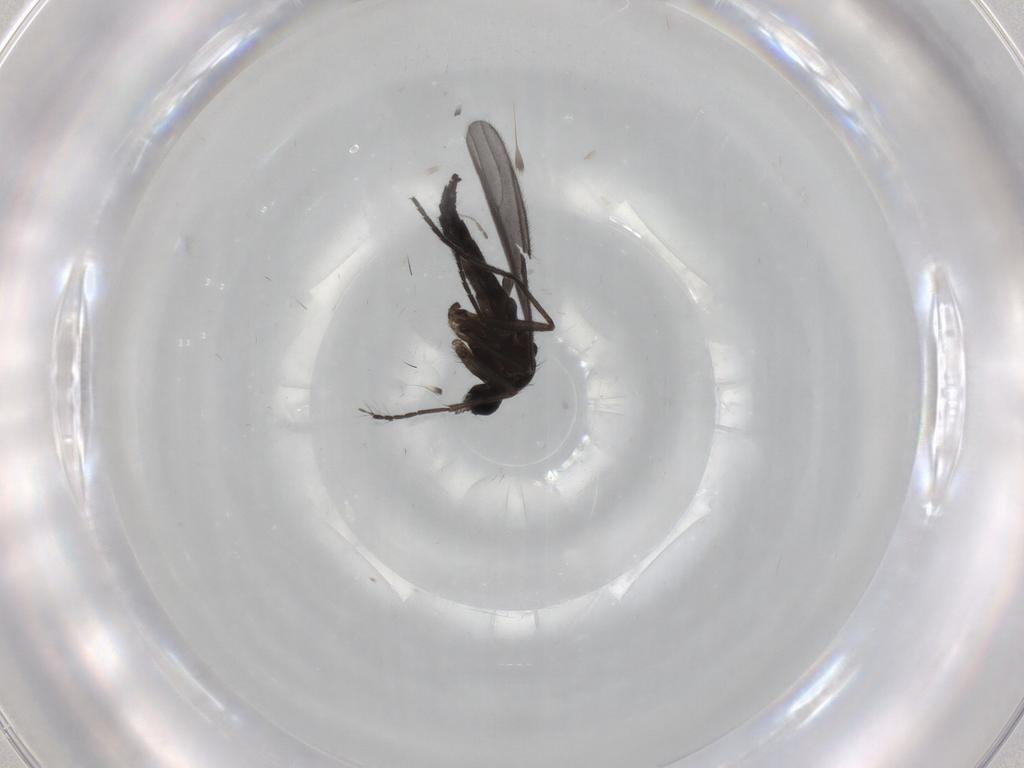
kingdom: Animalia
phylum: Arthropoda
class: Insecta
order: Diptera
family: Sciaridae
